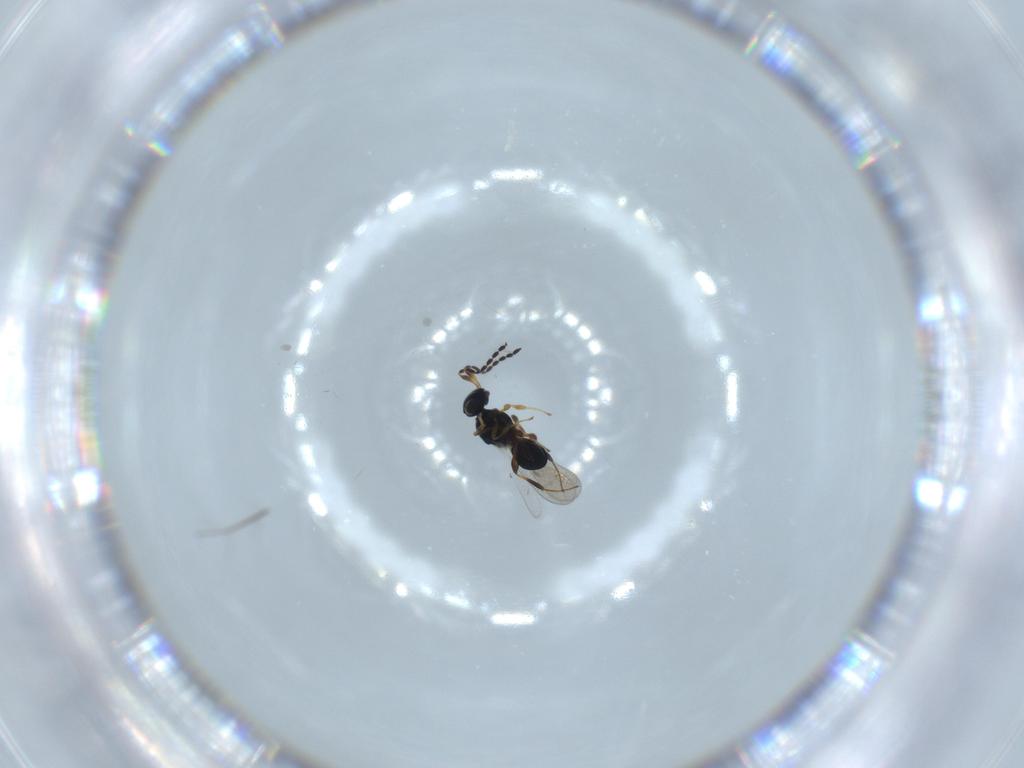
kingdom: Animalia
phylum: Arthropoda
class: Insecta
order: Hymenoptera
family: Platygastridae
